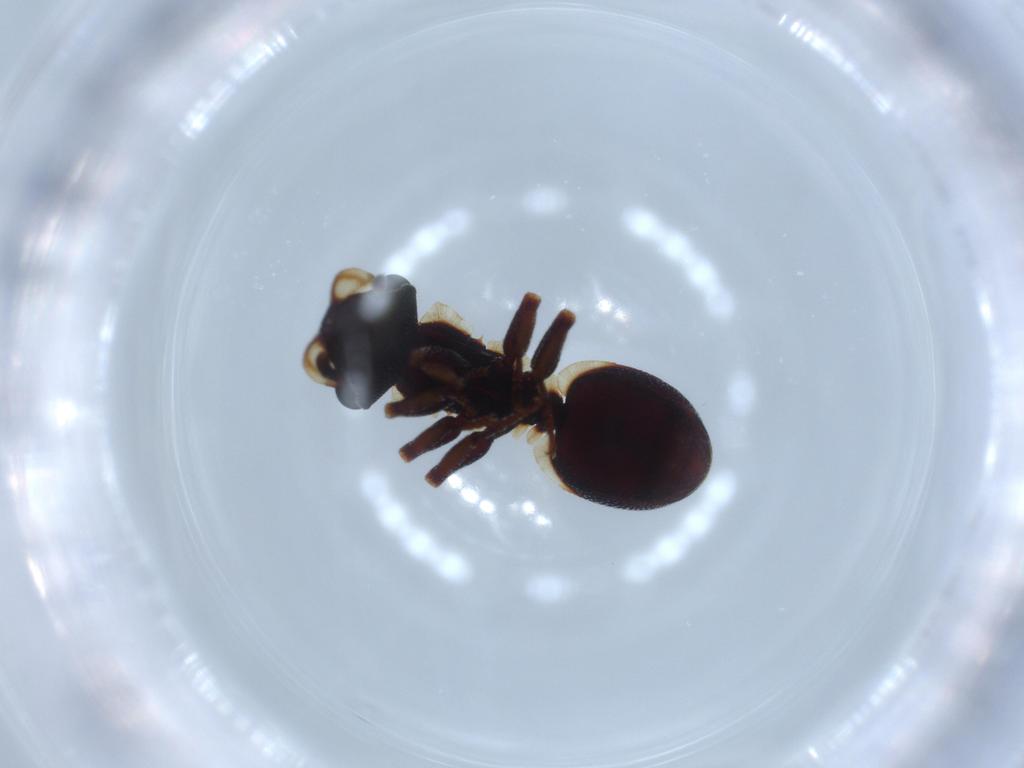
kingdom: Animalia
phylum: Arthropoda
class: Insecta
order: Hymenoptera
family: Formicidae
